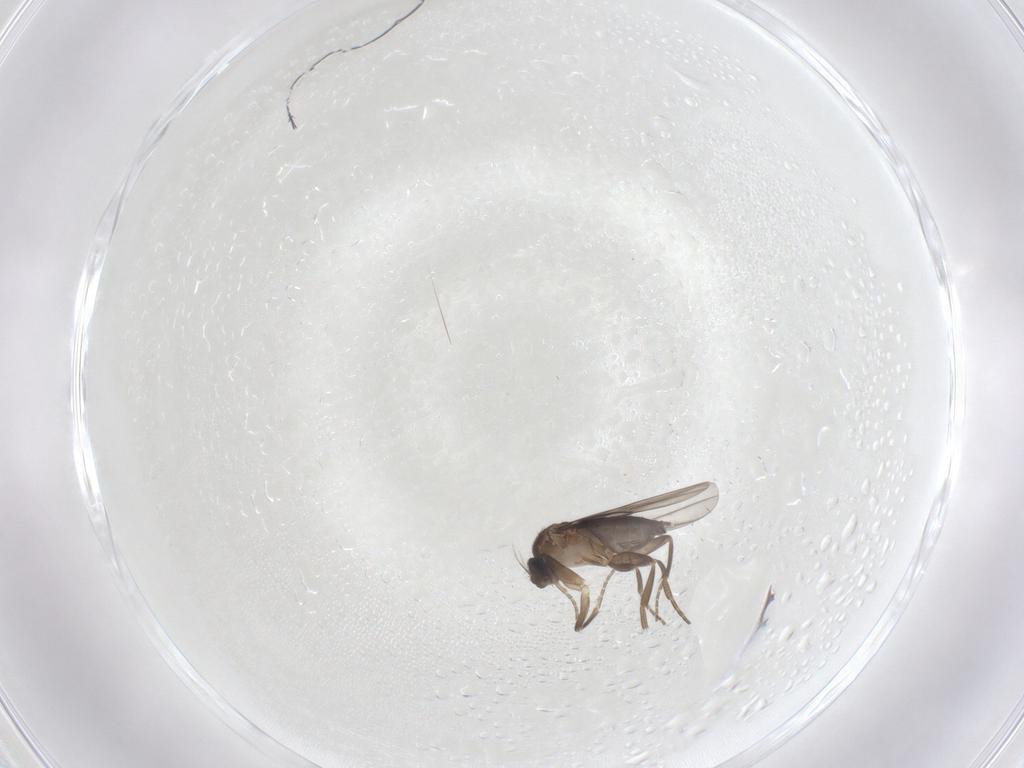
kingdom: Animalia
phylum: Arthropoda
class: Insecta
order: Diptera
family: Phoridae
